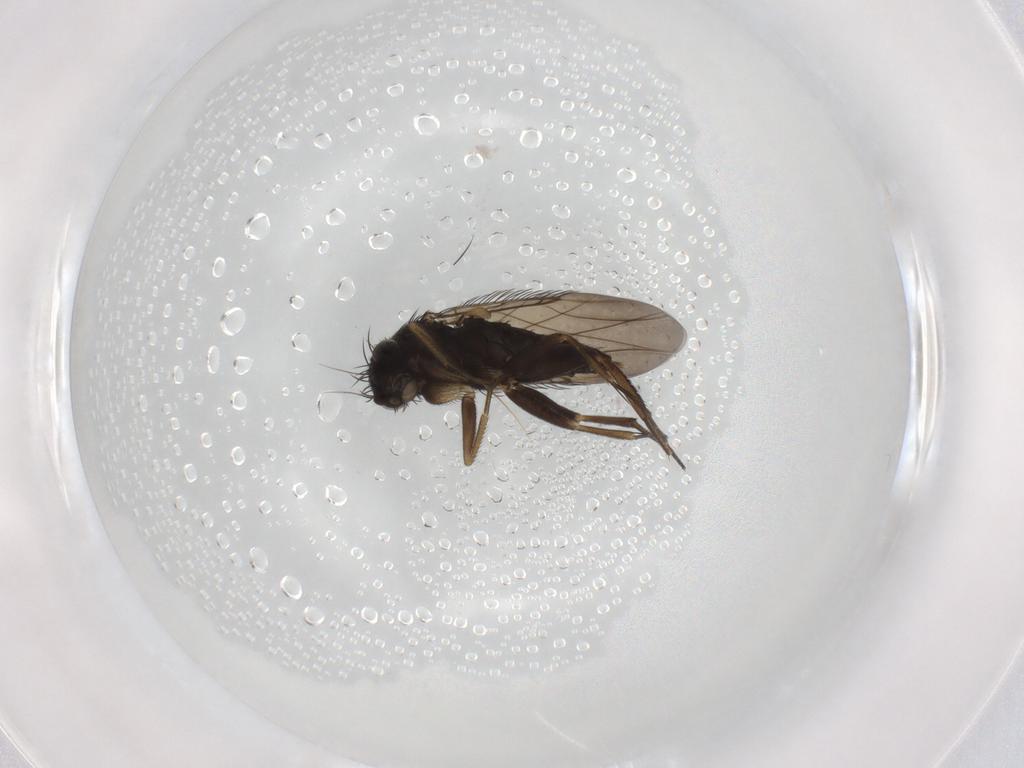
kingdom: Animalia
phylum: Arthropoda
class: Insecta
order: Diptera
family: Phoridae
